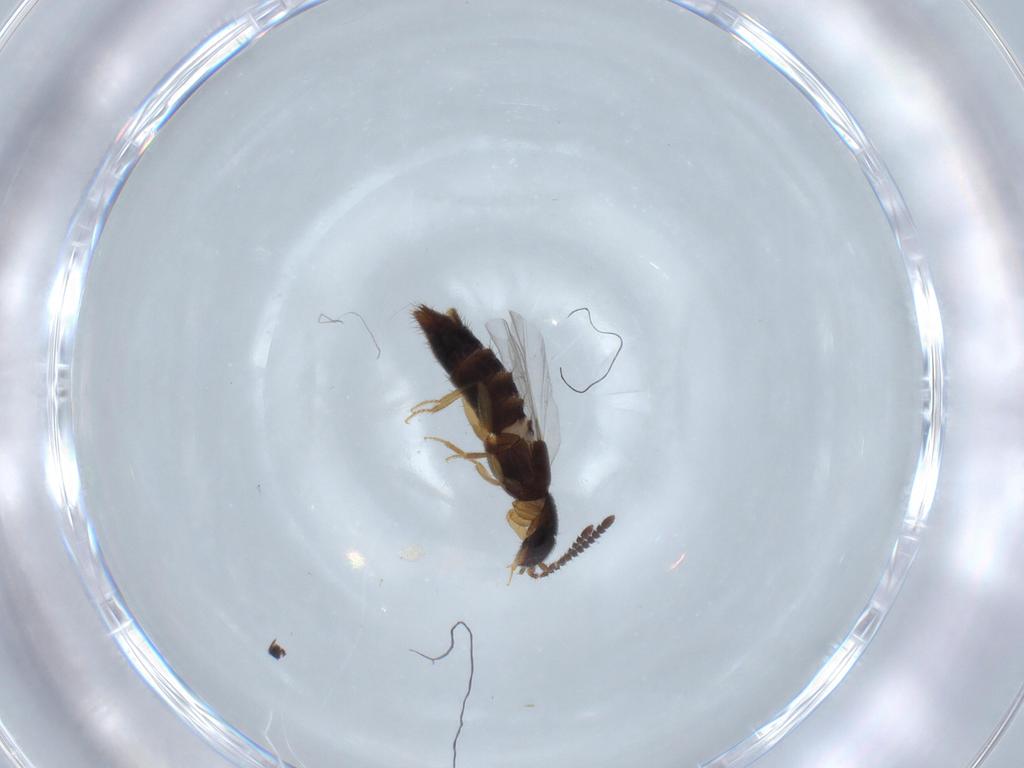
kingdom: Animalia
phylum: Arthropoda
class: Insecta
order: Coleoptera
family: Staphylinidae
